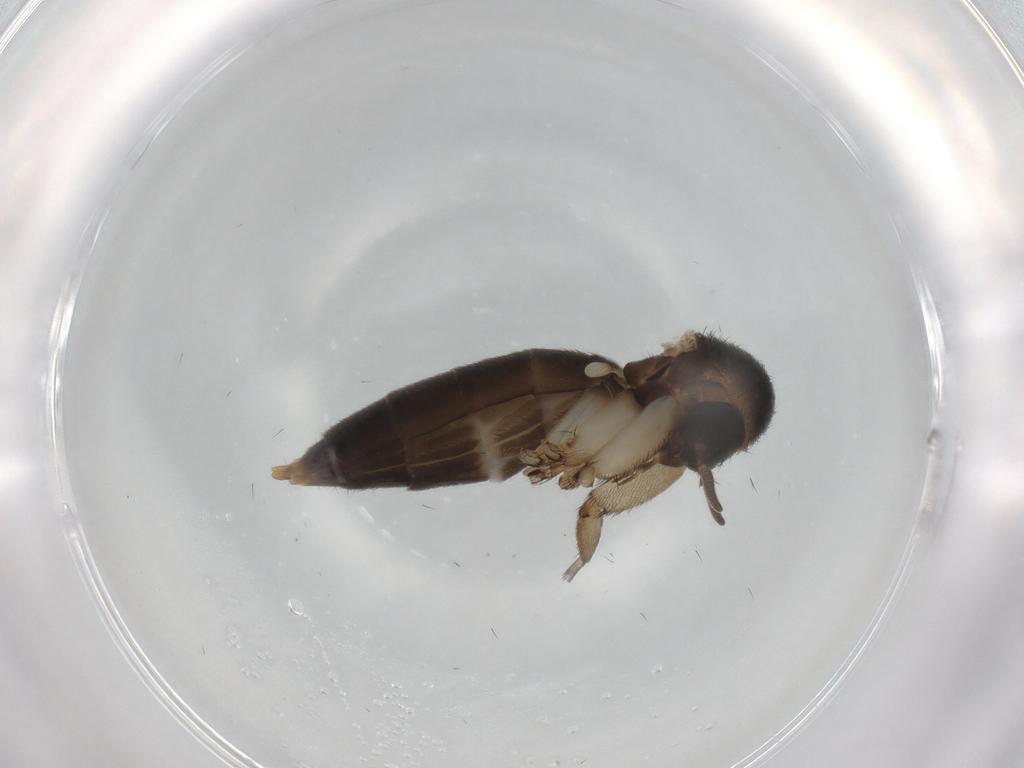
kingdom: Animalia
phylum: Arthropoda
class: Insecta
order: Diptera
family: Mycetophilidae
